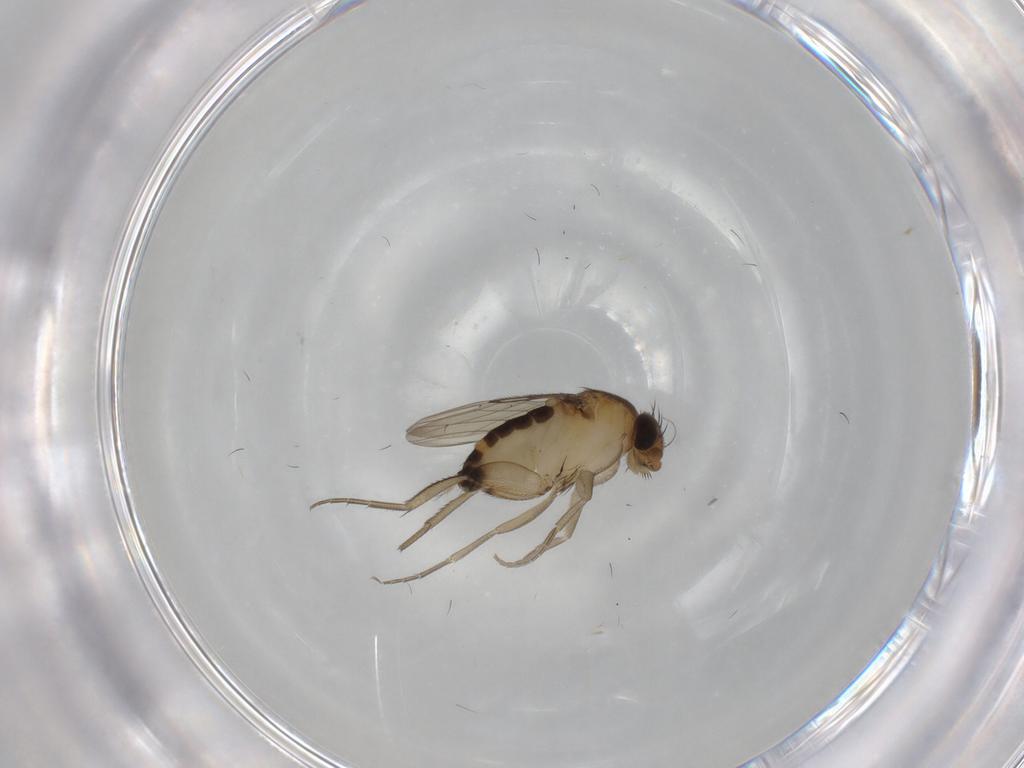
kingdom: Animalia
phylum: Arthropoda
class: Insecta
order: Diptera
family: Phoridae
